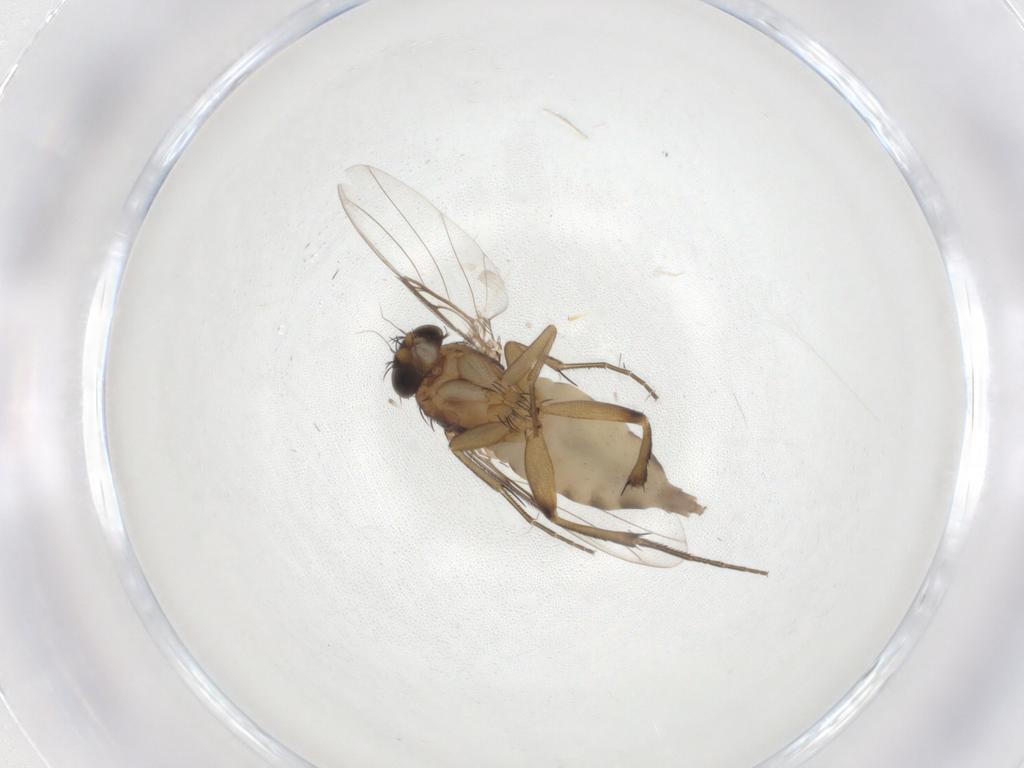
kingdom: Animalia
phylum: Arthropoda
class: Insecta
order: Diptera
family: Phoridae
